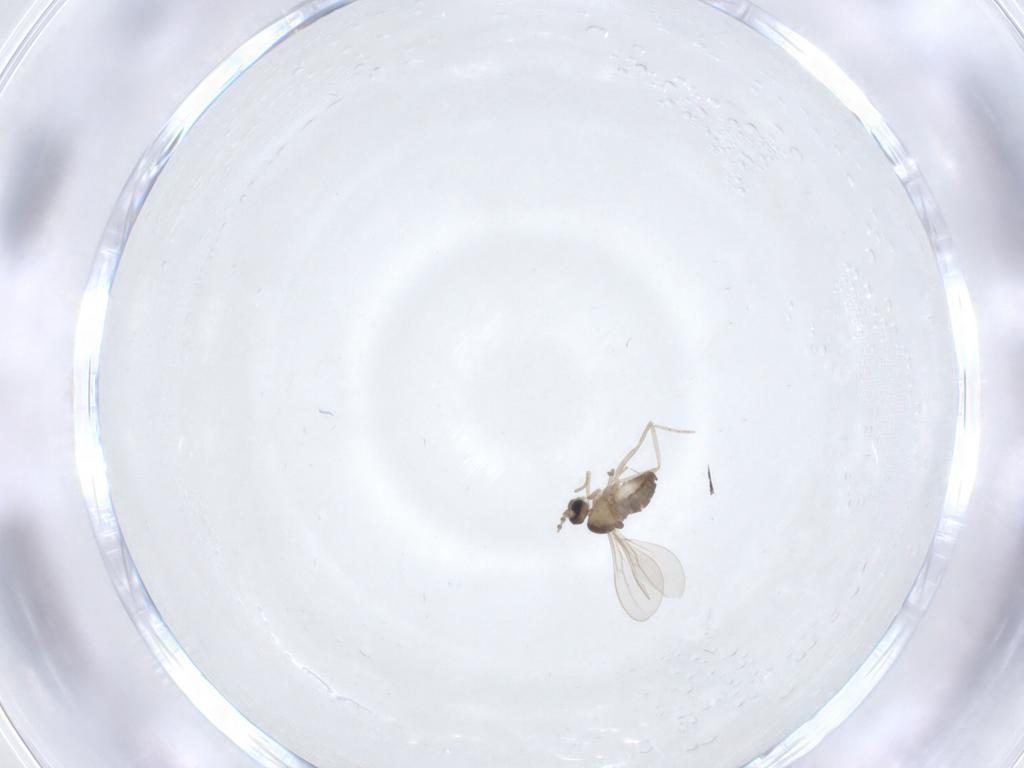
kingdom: Animalia
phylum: Arthropoda
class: Insecta
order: Diptera
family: Cecidomyiidae
